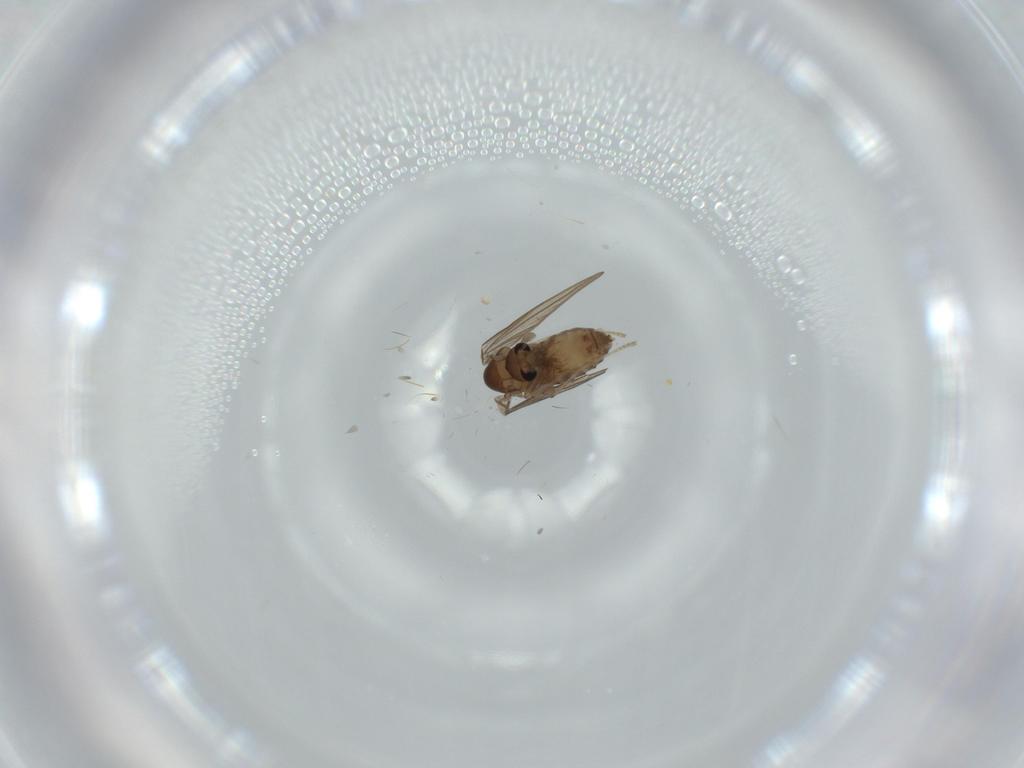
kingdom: Animalia
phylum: Arthropoda
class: Insecta
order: Diptera
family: Psychodidae
